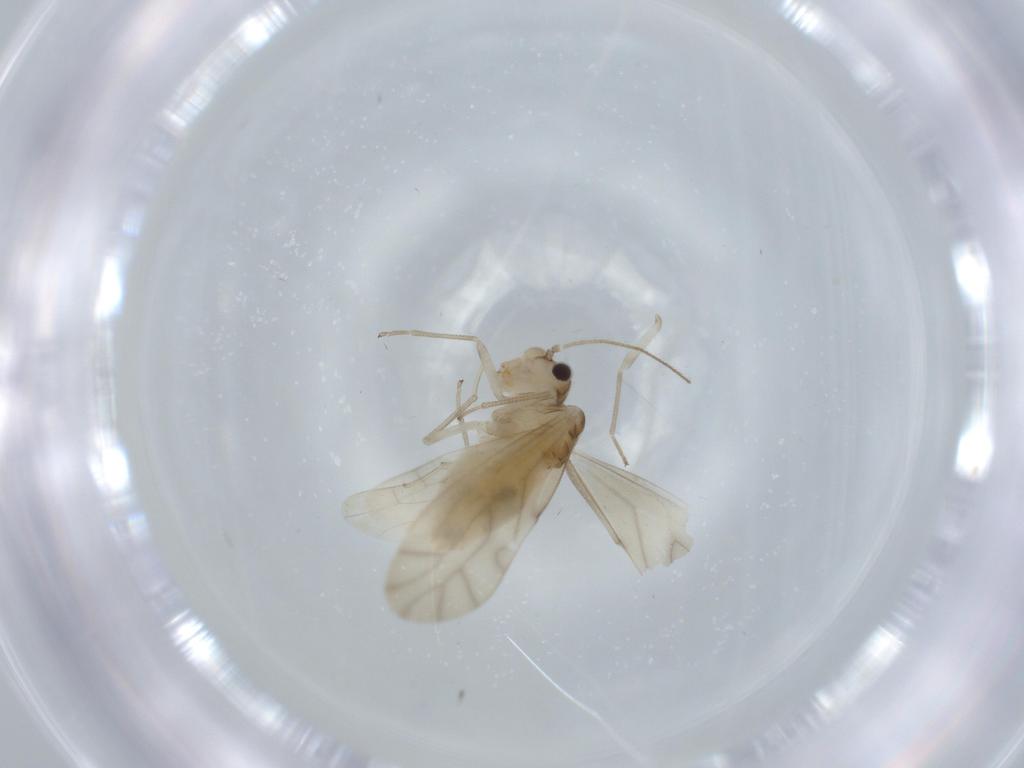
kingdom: Animalia
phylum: Arthropoda
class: Insecta
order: Psocodea
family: Caeciliusidae
